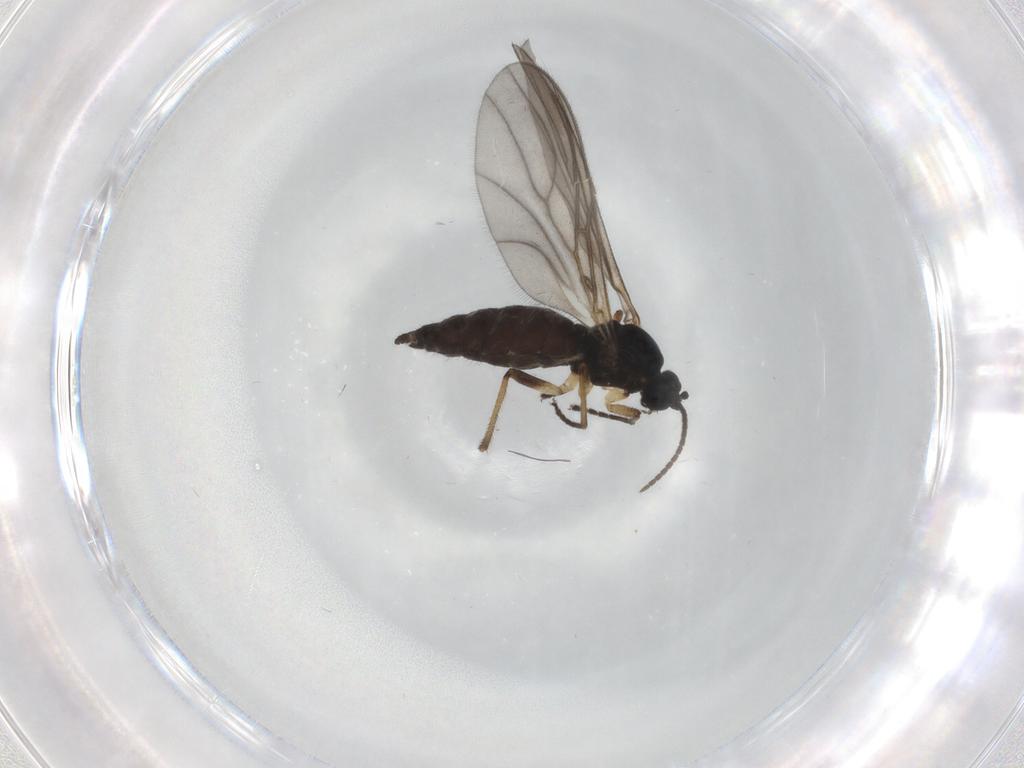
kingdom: Animalia
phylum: Arthropoda
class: Insecta
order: Diptera
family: Sciaridae
